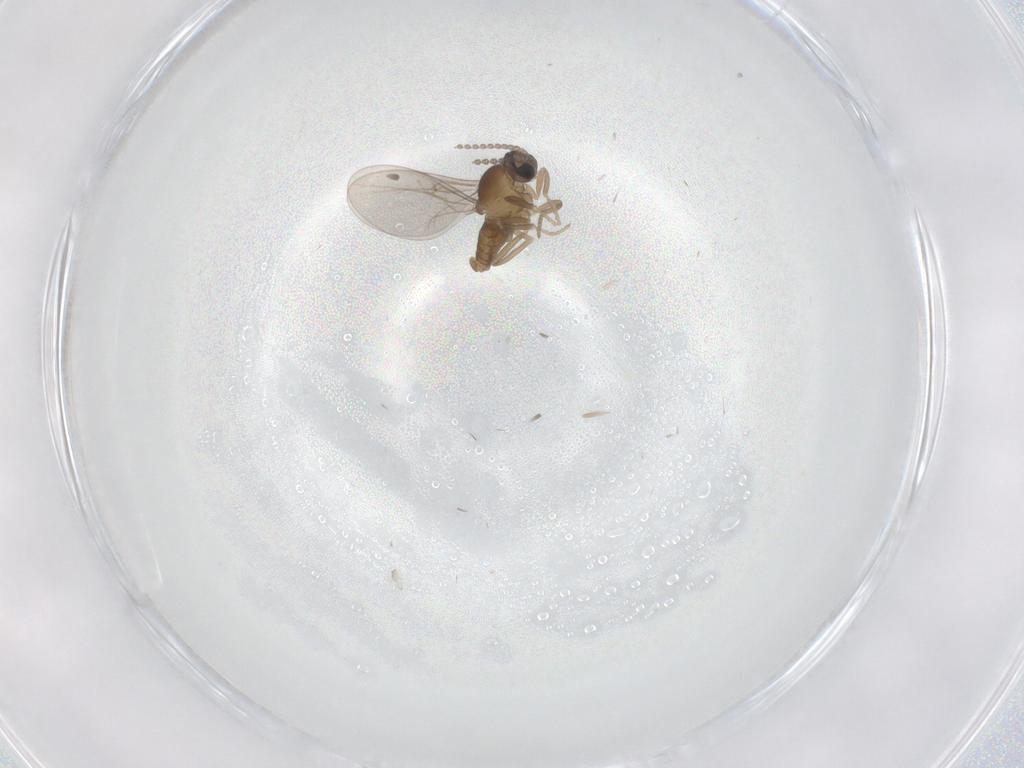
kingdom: Animalia
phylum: Arthropoda
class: Insecta
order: Diptera
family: Cecidomyiidae
